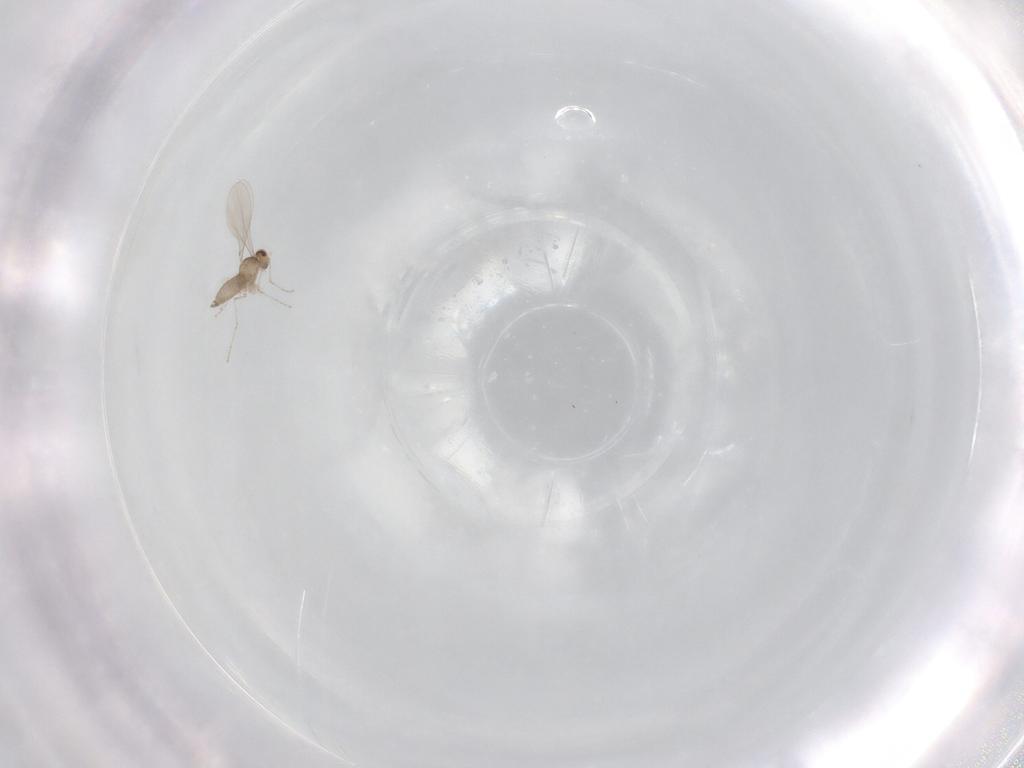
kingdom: Animalia
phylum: Arthropoda
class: Insecta
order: Diptera
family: Cecidomyiidae
